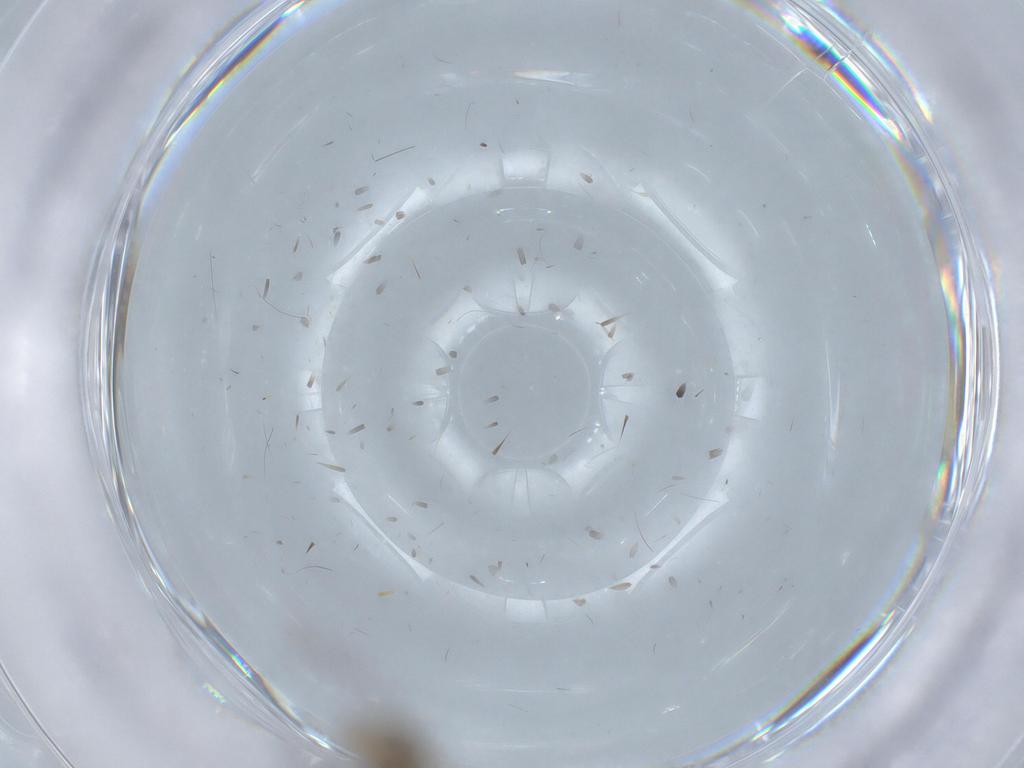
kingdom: Animalia
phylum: Arthropoda
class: Insecta
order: Diptera
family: Cecidomyiidae
